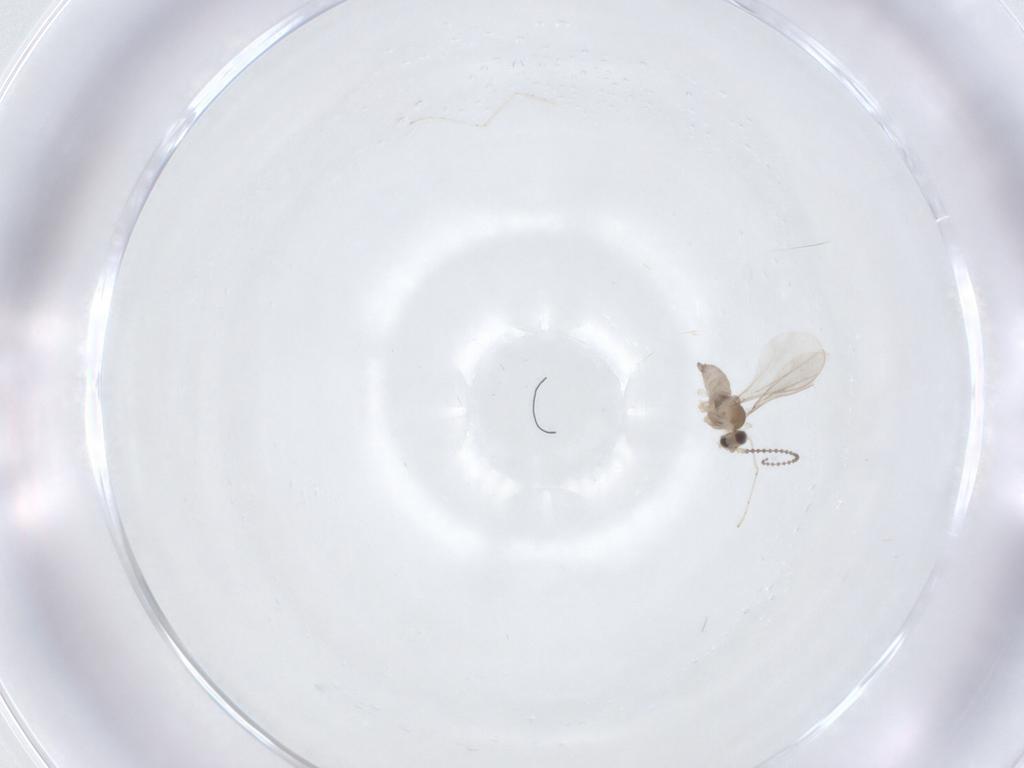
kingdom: Animalia
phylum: Arthropoda
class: Insecta
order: Diptera
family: Cecidomyiidae
